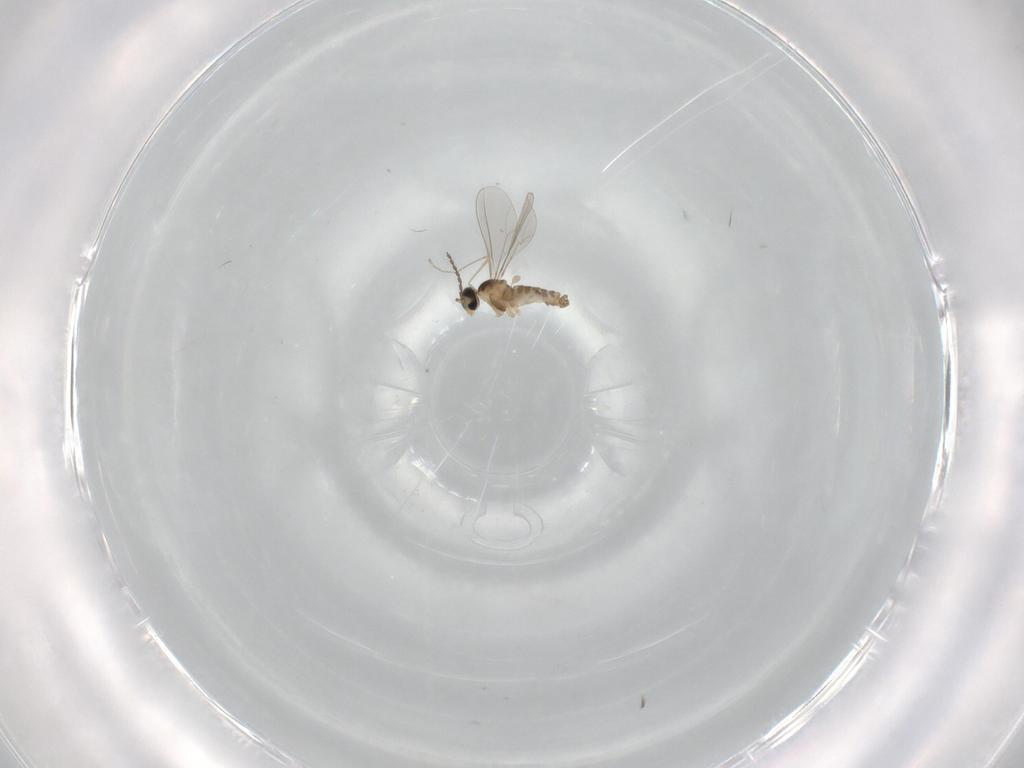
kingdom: Animalia
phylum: Arthropoda
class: Insecta
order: Diptera
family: Cecidomyiidae
